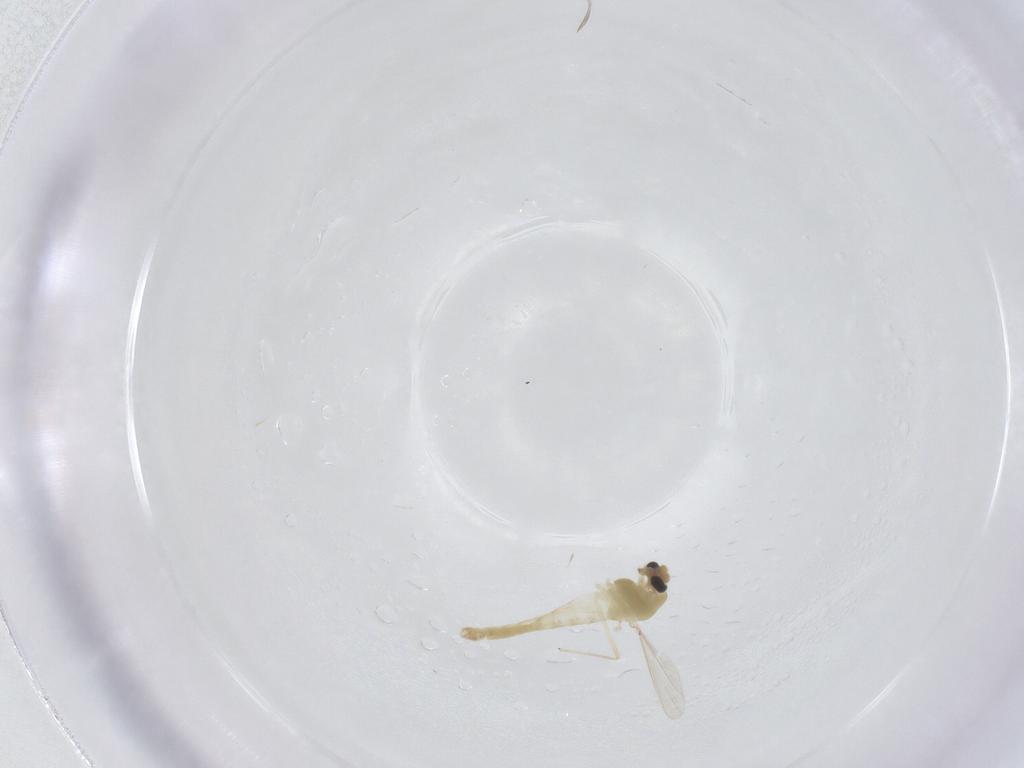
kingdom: Animalia
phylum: Arthropoda
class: Insecta
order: Diptera
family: Chironomidae
